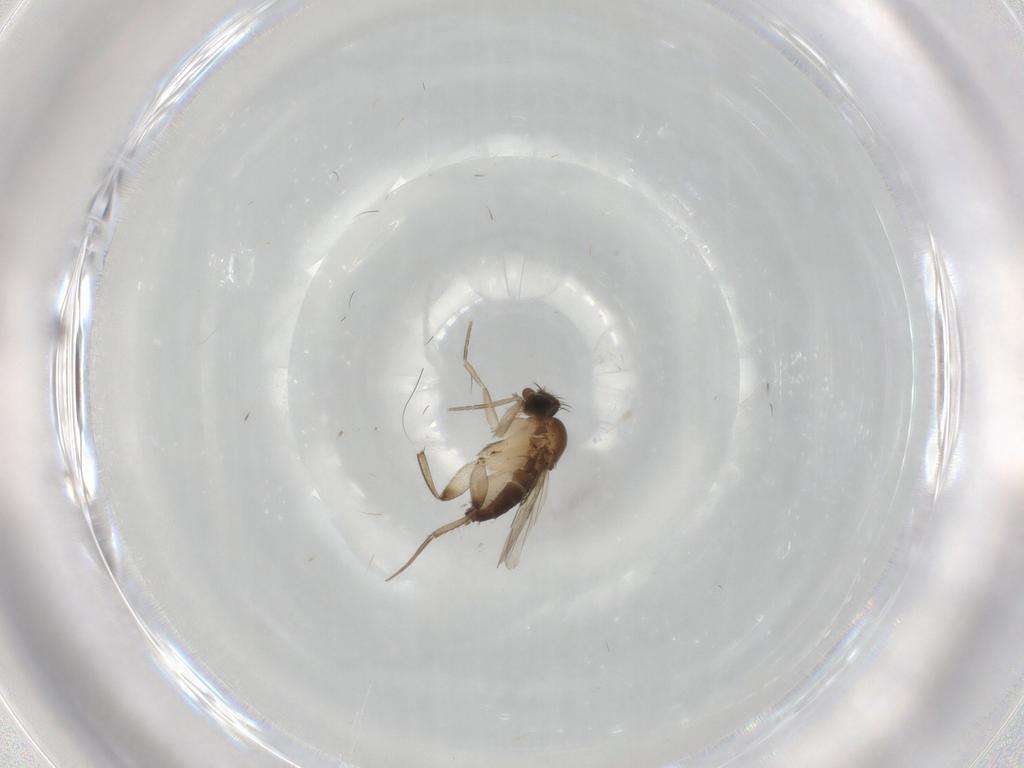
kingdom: Animalia
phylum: Arthropoda
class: Insecta
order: Diptera
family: Phoridae
